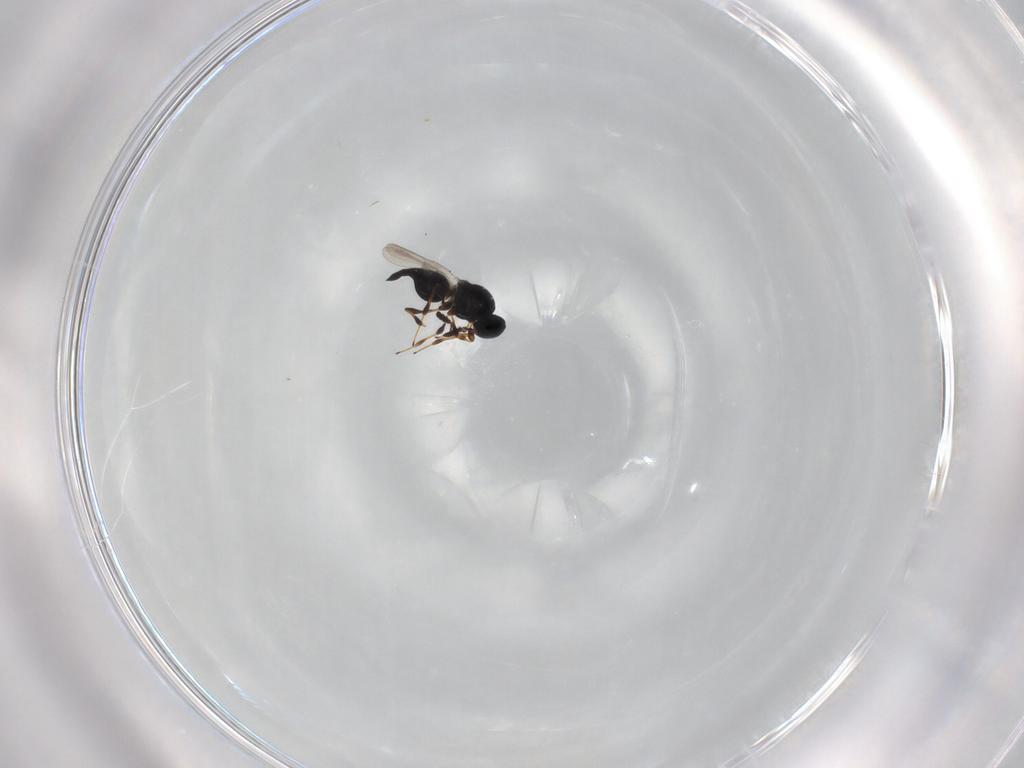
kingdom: Animalia
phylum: Arthropoda
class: Insecta
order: Hymenoptera
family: Platygastridae
